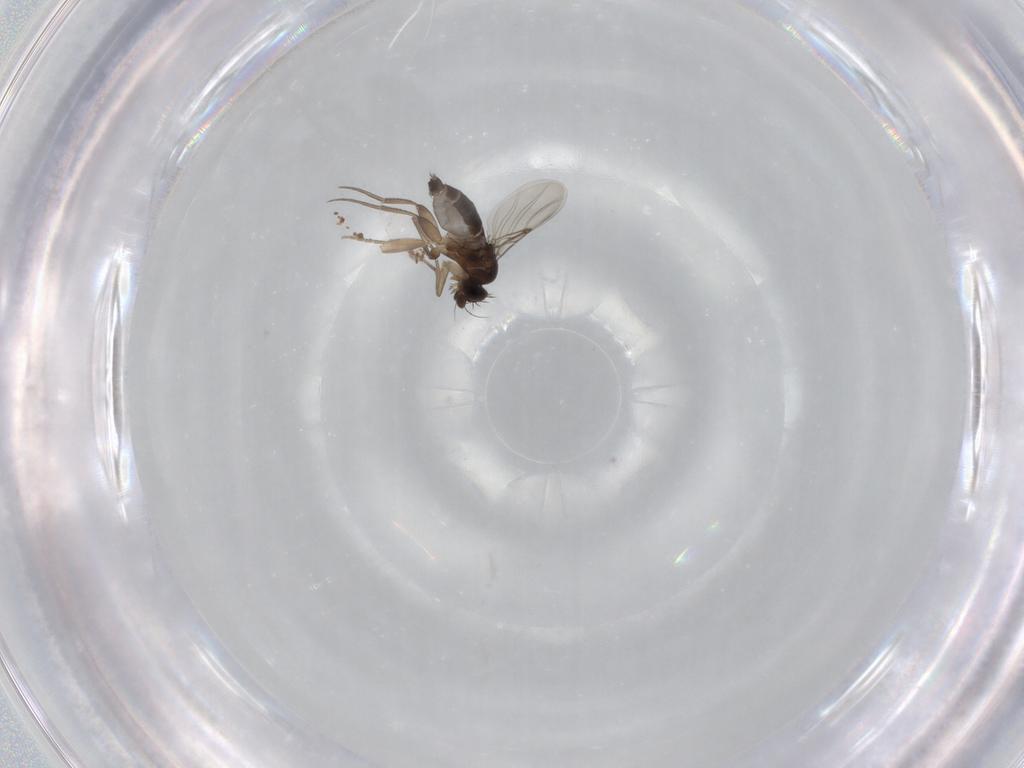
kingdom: Animalia
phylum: Arthropoda
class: Insecta
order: Diptera
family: Phoridae
